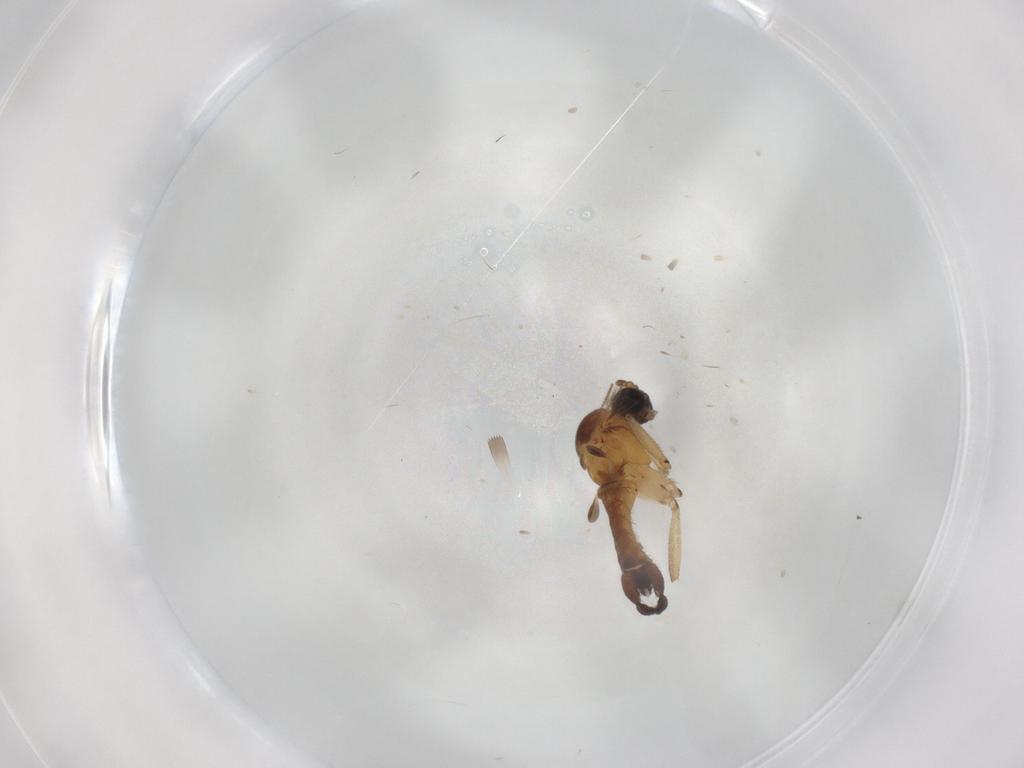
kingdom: Animalia
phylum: Arthropoda
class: Insecta
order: Diptera
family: Sciaridae
